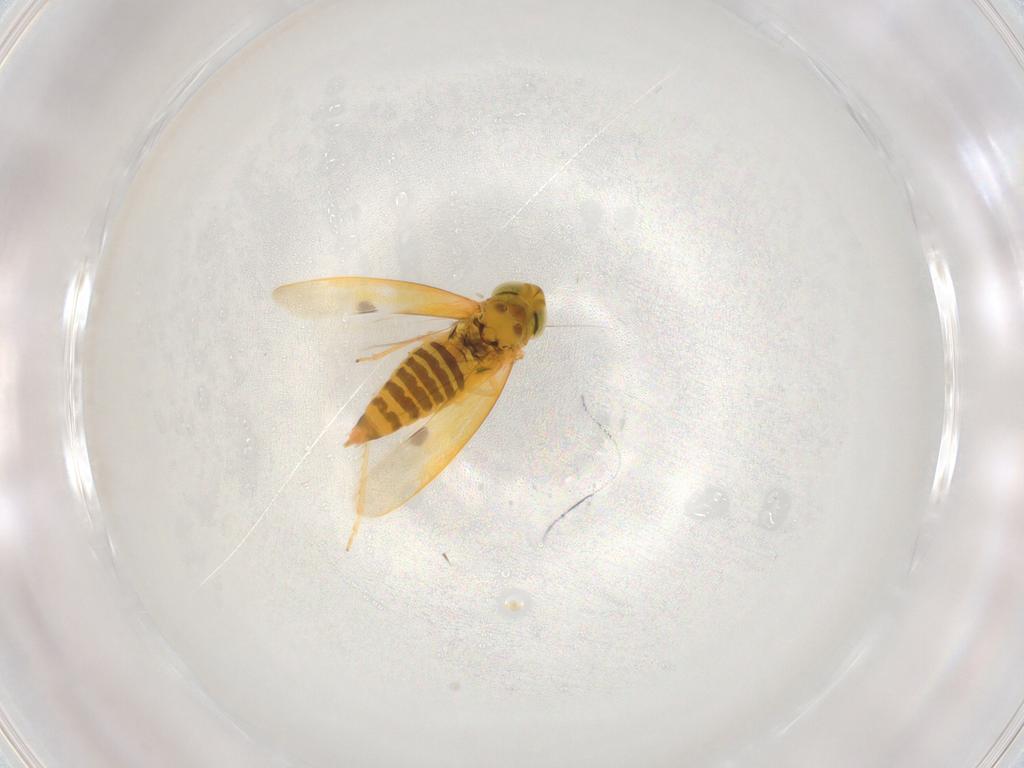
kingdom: Animalia
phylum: Arthropoda
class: Insecta
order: Hemiptera
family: Cicadellidae
